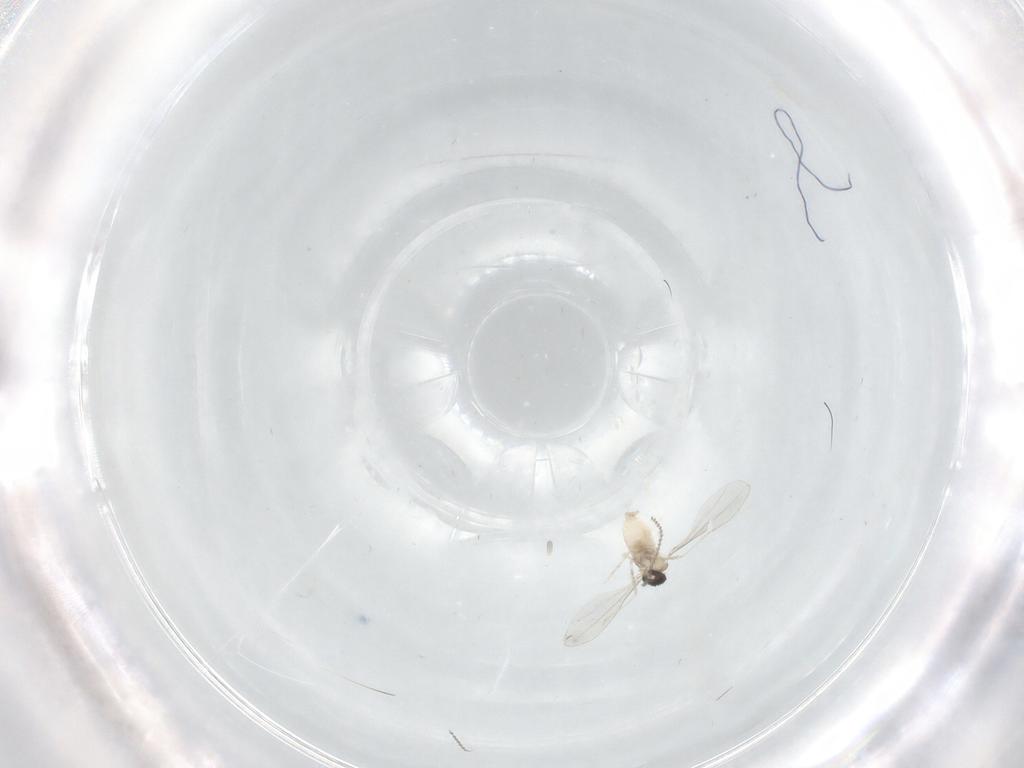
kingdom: Animalia
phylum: Arthropoda
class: Insecta
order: Diptera
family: Cecidomyiidae
